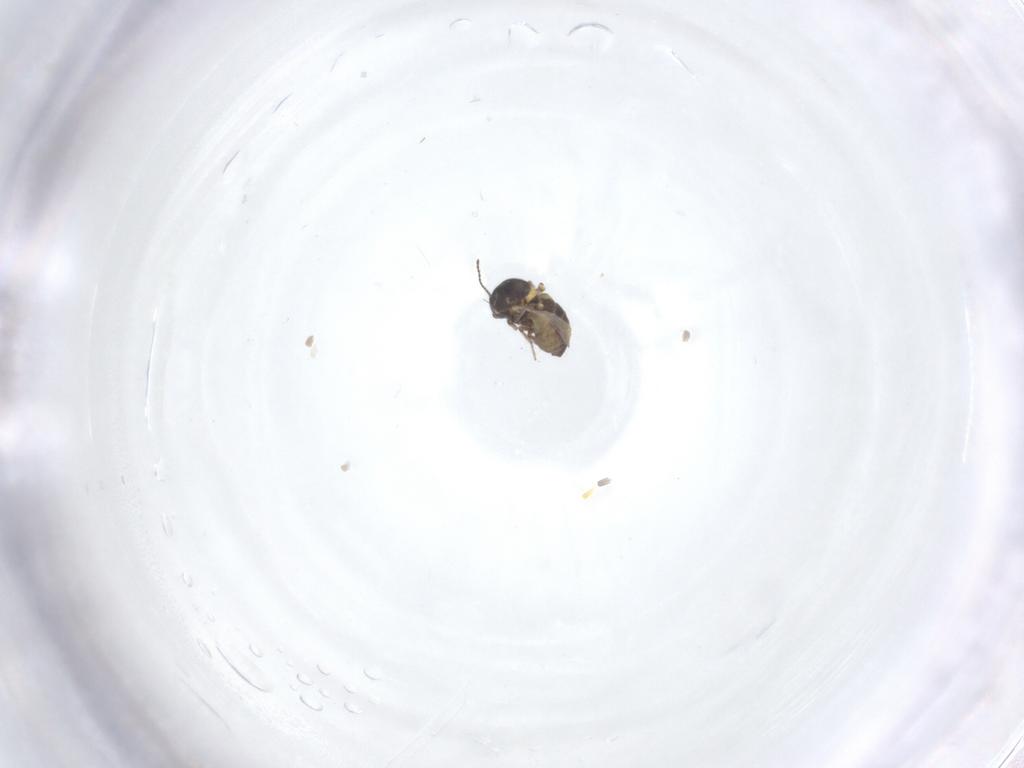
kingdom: Animalia
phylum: Arthropoda
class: Insecta
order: Diptera
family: Ceratopogonidae
